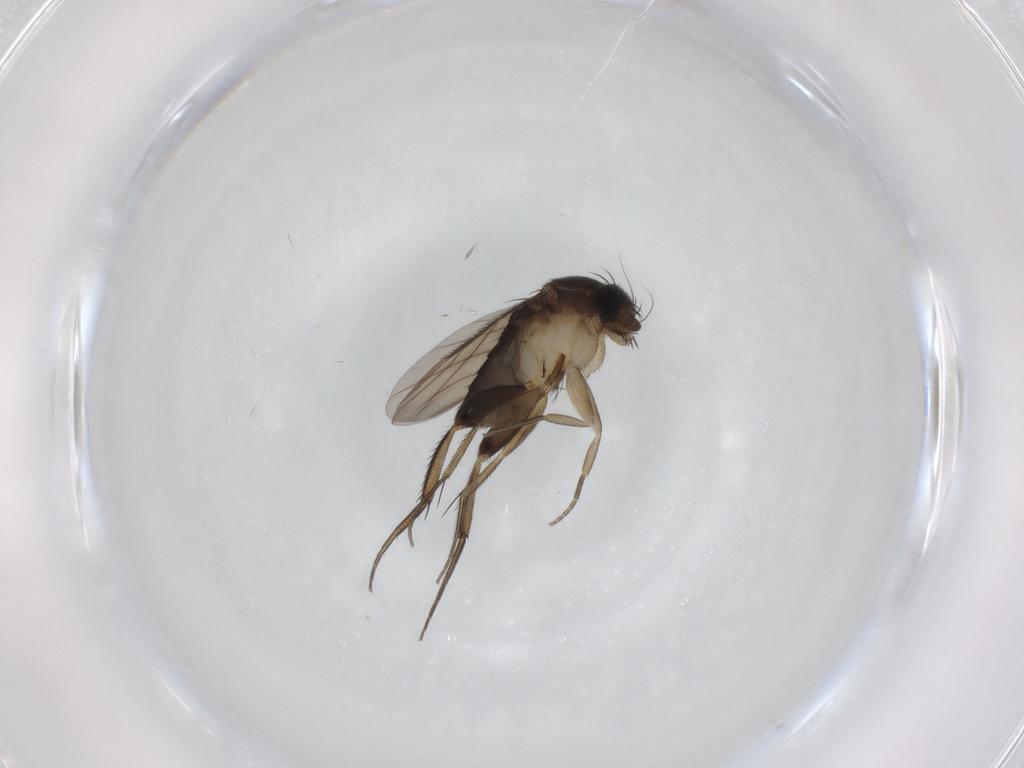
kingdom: Animalia
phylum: Arthropoda
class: Insecta
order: Diptera
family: Phoridae
